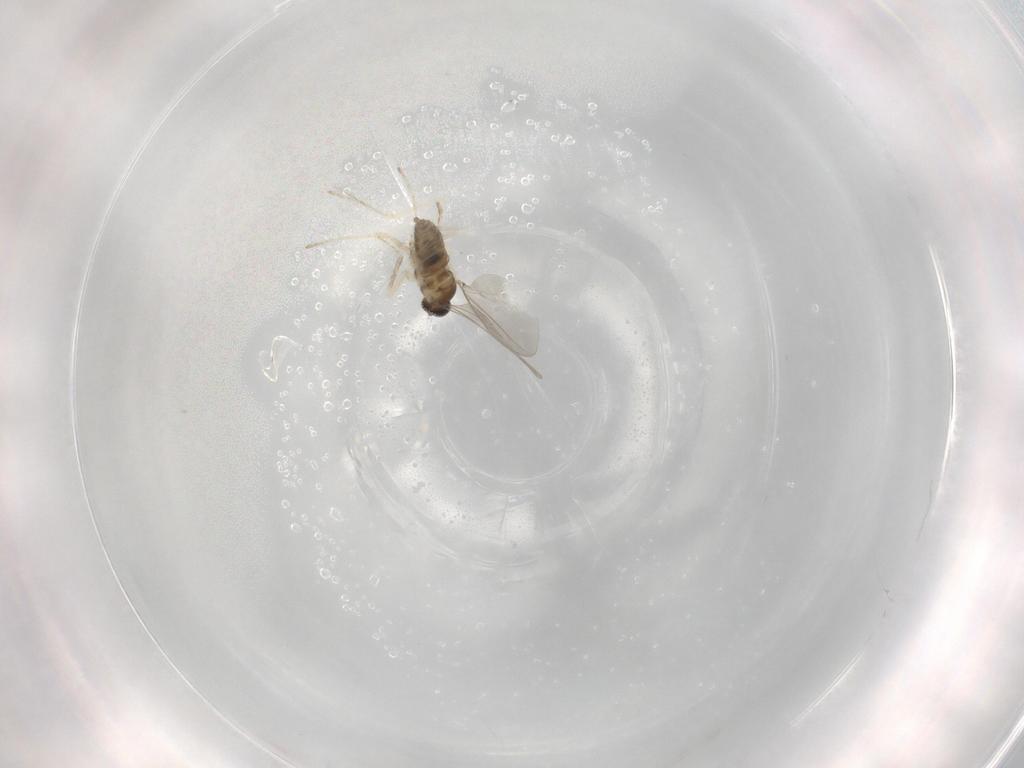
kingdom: Animalia
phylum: Arthropoda
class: Insecta
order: Diptera
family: Cecidomyiidae
